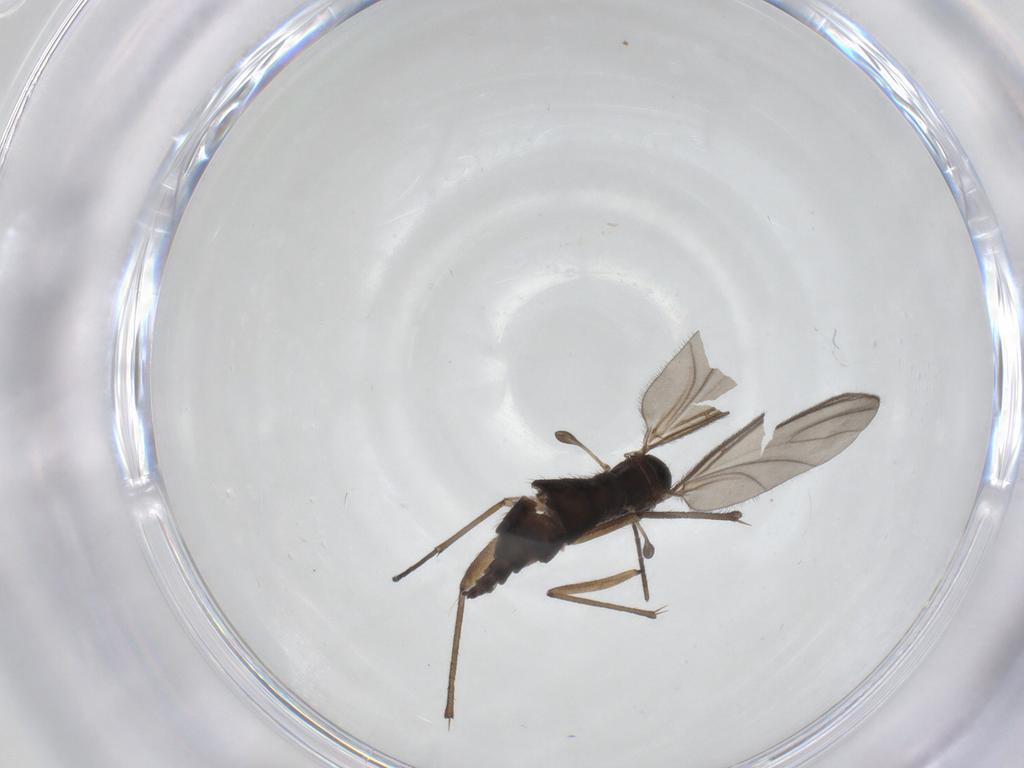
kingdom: Animalia
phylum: Arthropoda
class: Insecta
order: Diptera
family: Sciaridae
